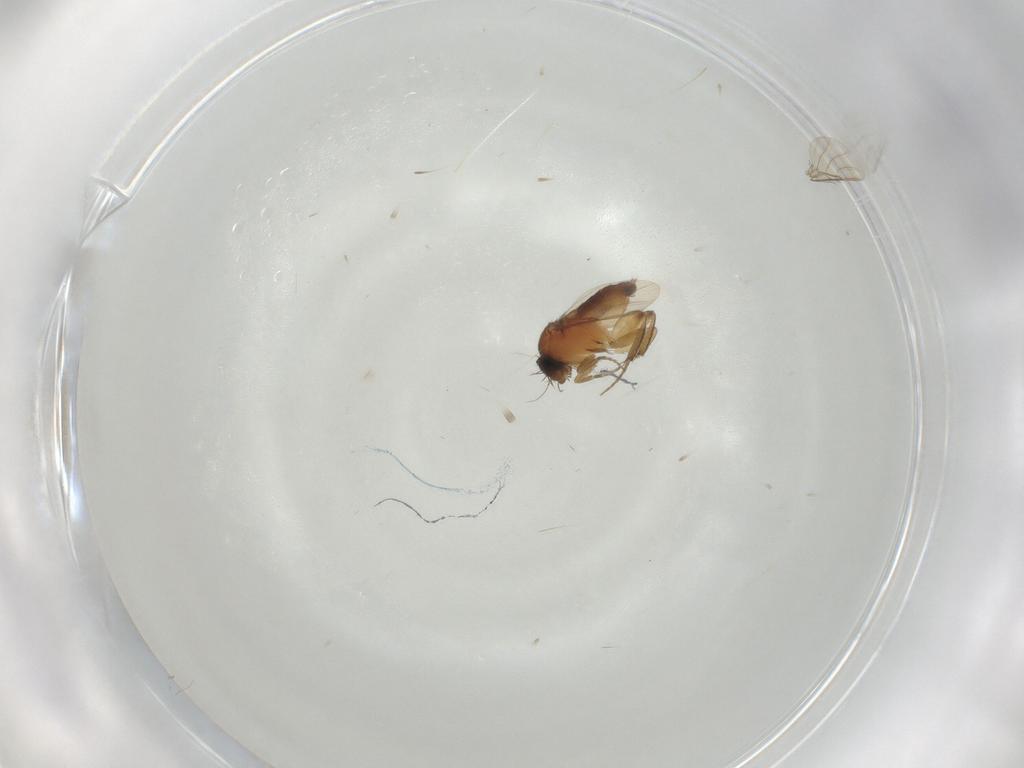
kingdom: Animalia
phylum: Arthropoda
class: Insecta
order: Diptera
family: Phoridae
